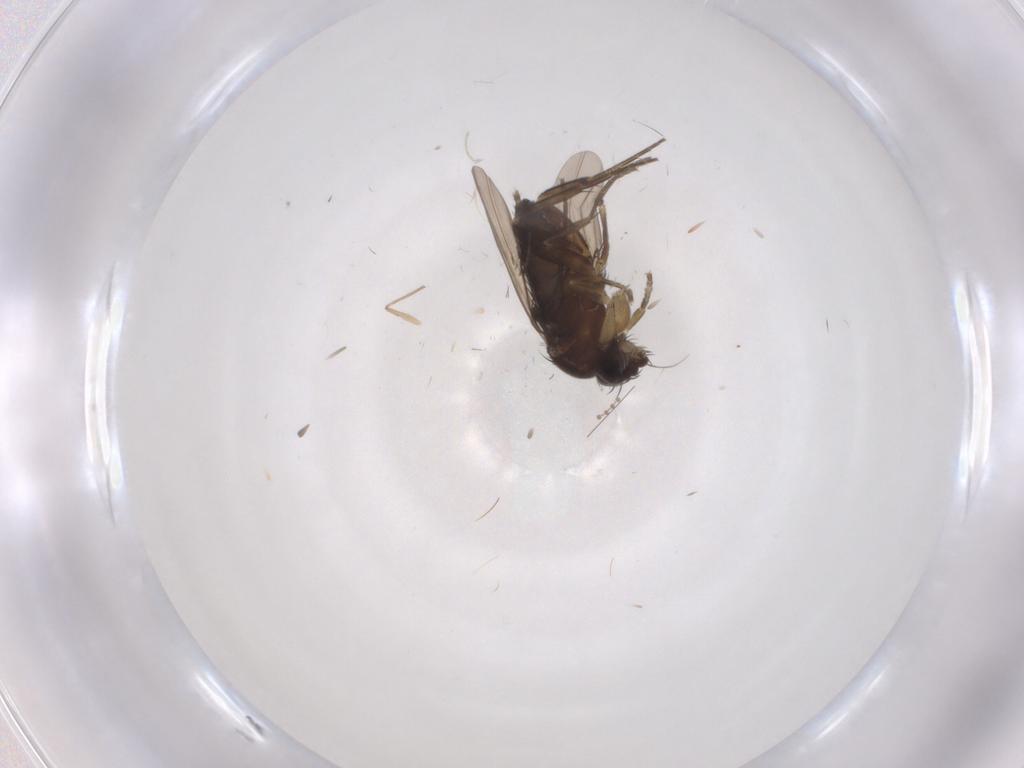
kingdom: Animalia
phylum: Arthropoda
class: Insecta
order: Diptera
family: Phoridae
